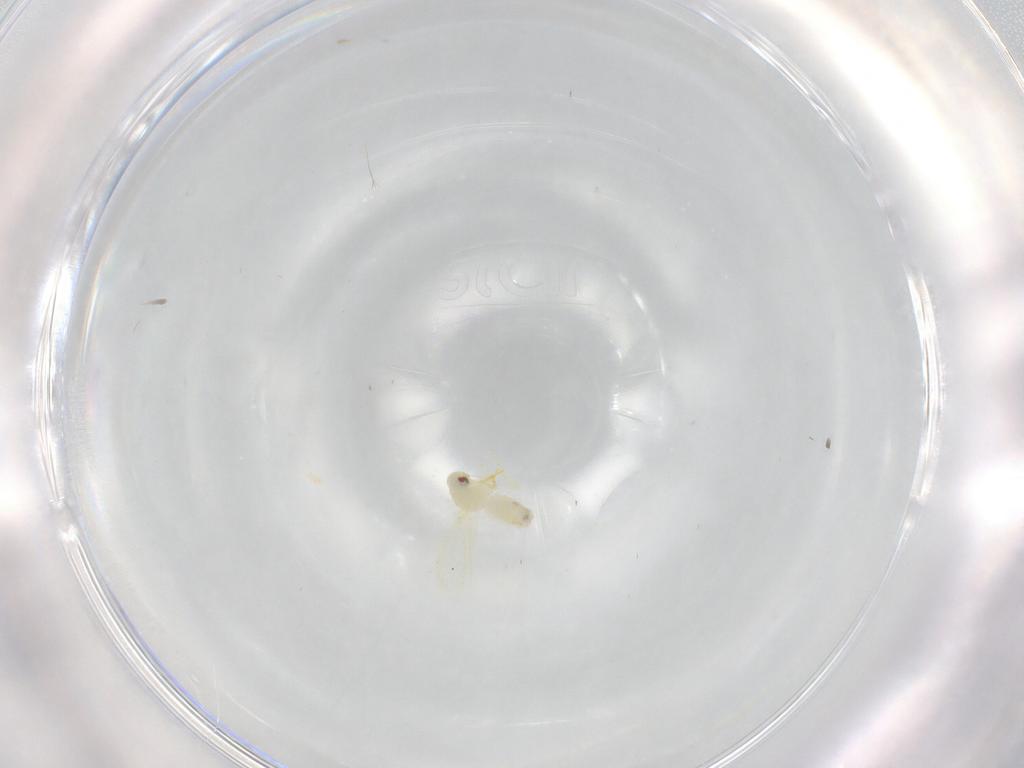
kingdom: Animalia
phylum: Arthropoda
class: Insecta
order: Hemiptera
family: Aleyrodidae
